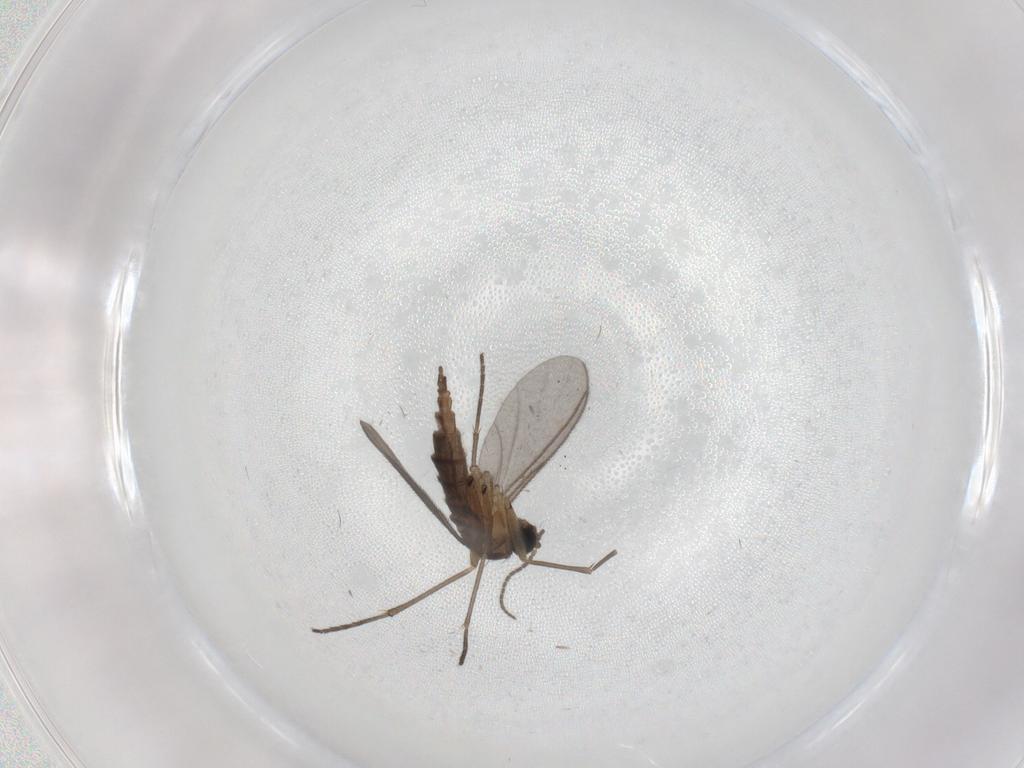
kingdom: Animalia
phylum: Arthropoda
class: Insecta
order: Diptera
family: Sciaridae
